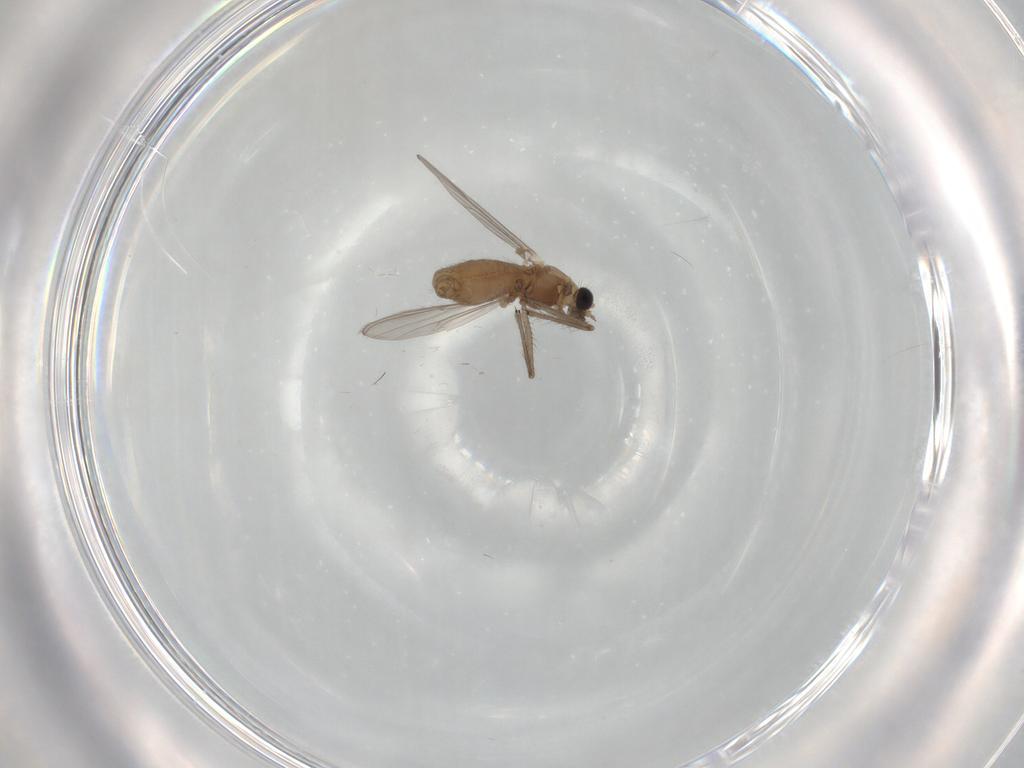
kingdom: Animalia
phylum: Arthropoda
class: Insecta
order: Diptera
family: Chironomidae
